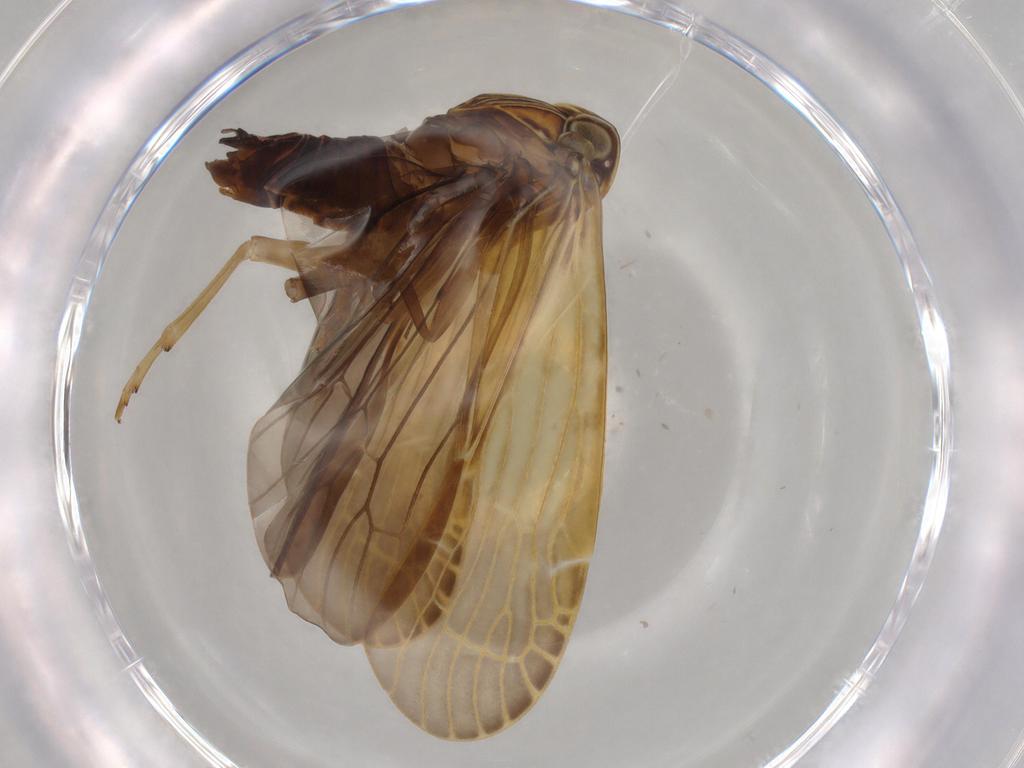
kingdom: Animalia
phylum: Arthropoda
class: Insecta
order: Hemiptera
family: Achilidae
